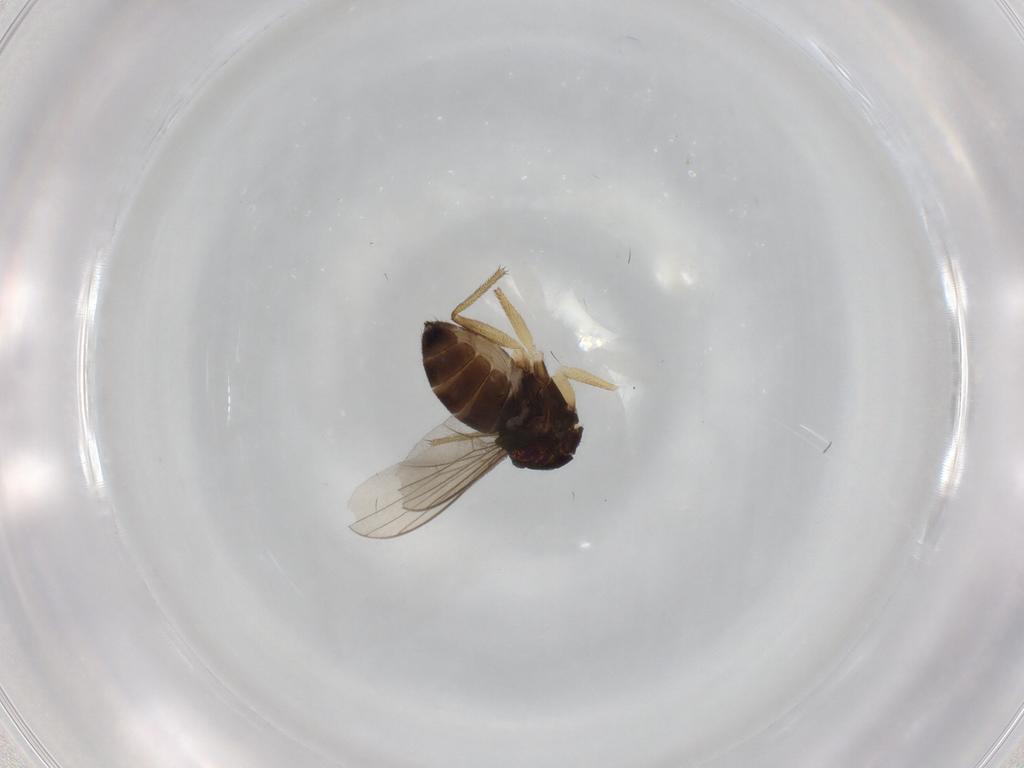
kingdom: Animalia
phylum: Arthropoda
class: Insecta
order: Diptera
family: Dolichopodidae
